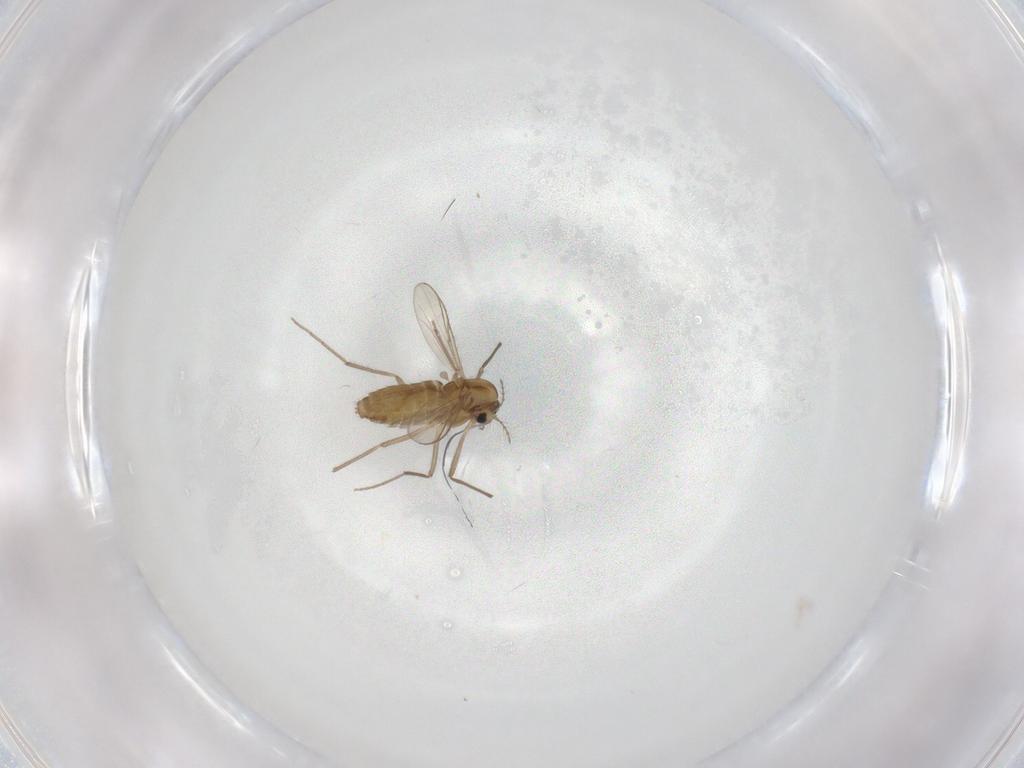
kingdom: Animalia
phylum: Arthropoda
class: Insecta
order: Diptera
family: Chironomidae
